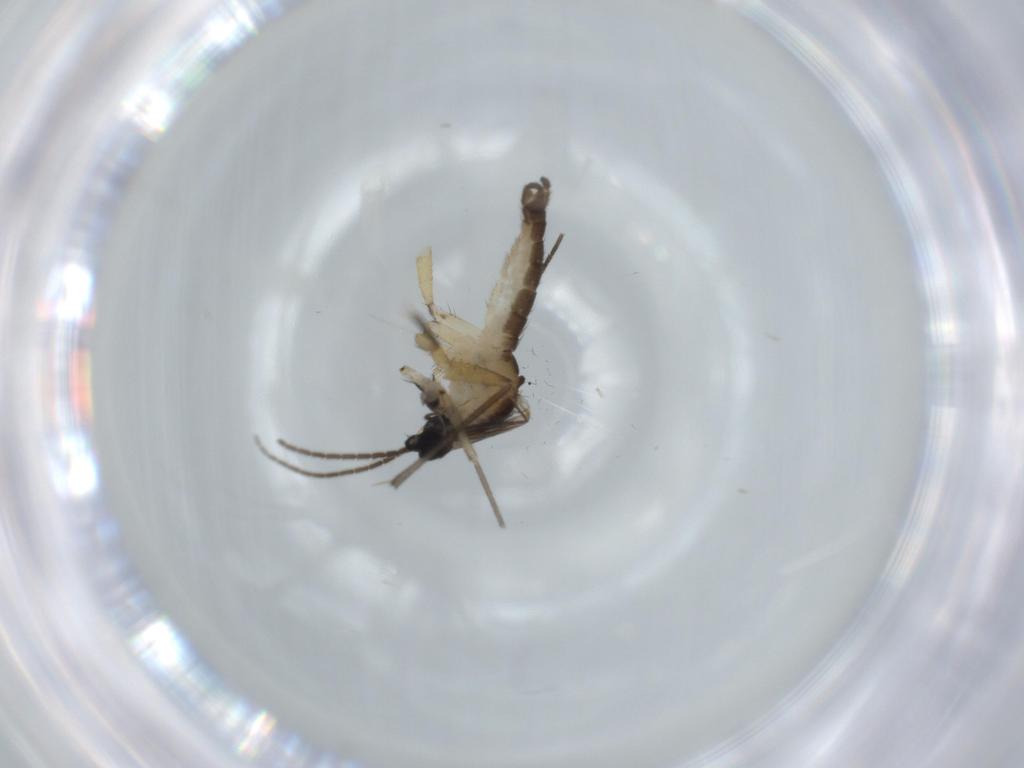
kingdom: Animalia
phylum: Arthropoda
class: Insecta
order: Diptera
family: Sciaridae
